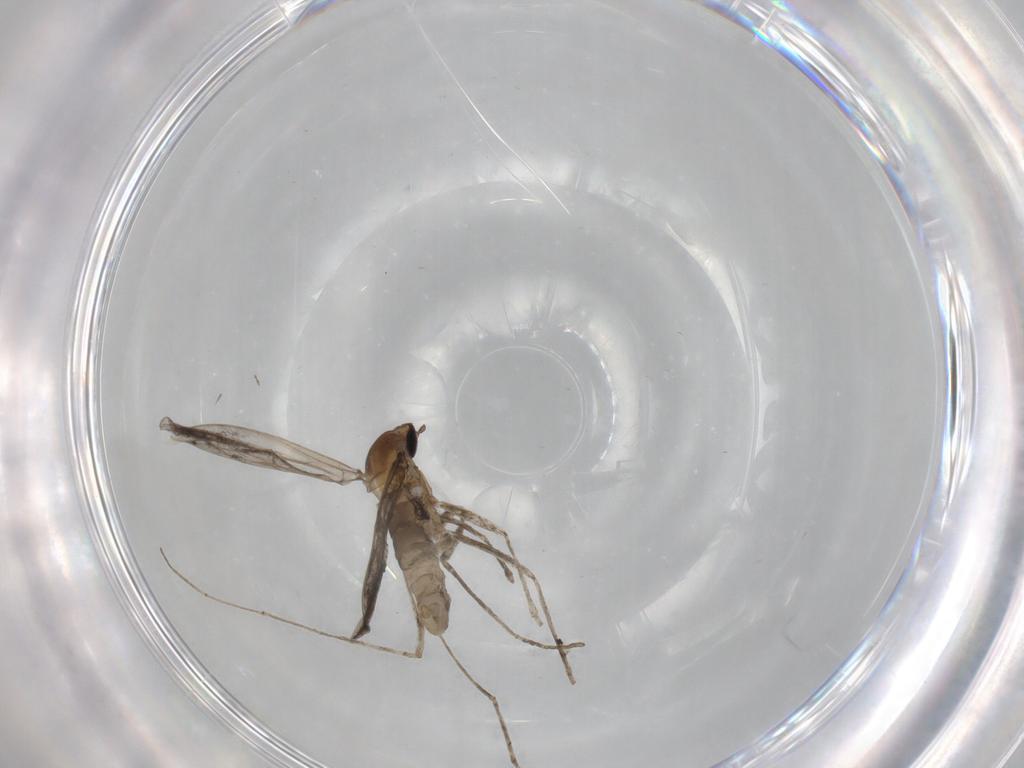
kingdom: Animalia
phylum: Arthropoda
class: Insecta
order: Diptera
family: Cecidomyiidae
